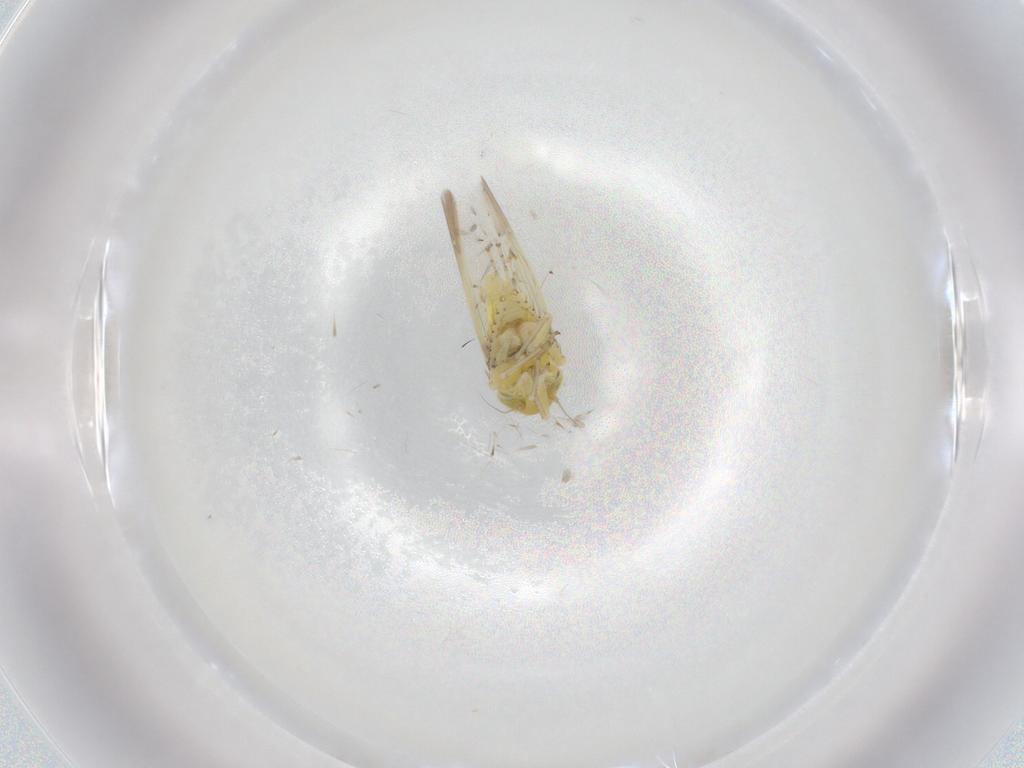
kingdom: Animalia
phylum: Arthropoda
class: Insecta
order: Hemiptera
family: Cicadellidae
